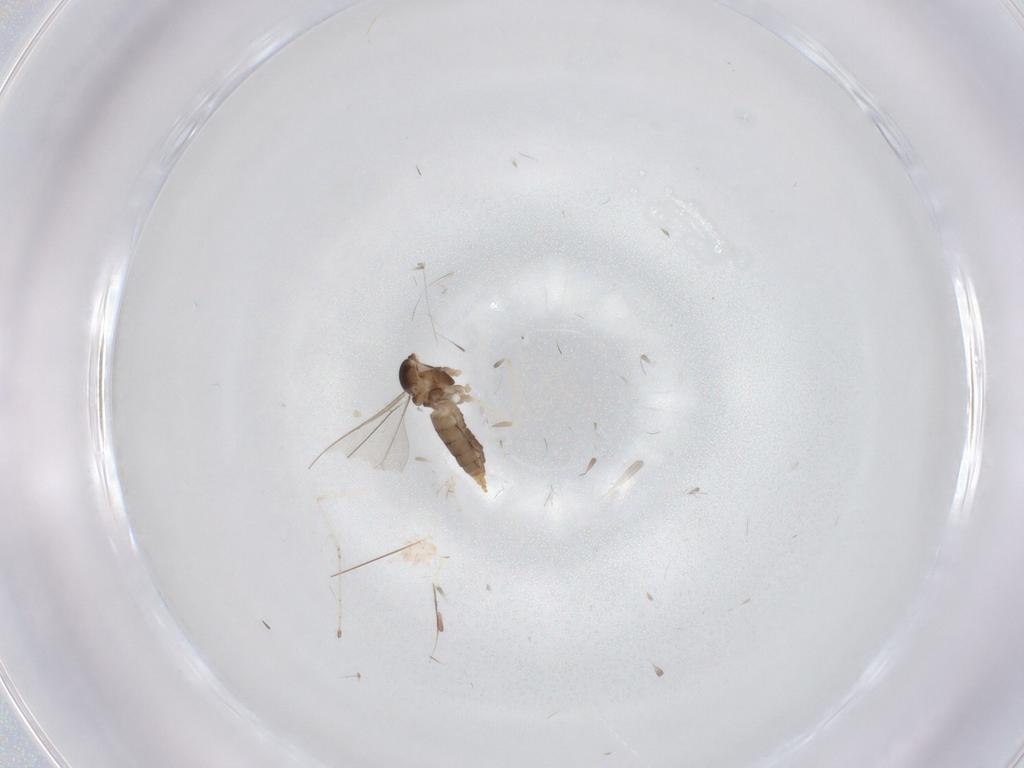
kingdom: Animalia
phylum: Arthropoda
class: Insecta
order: Diptera
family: Cecidomyiidae
